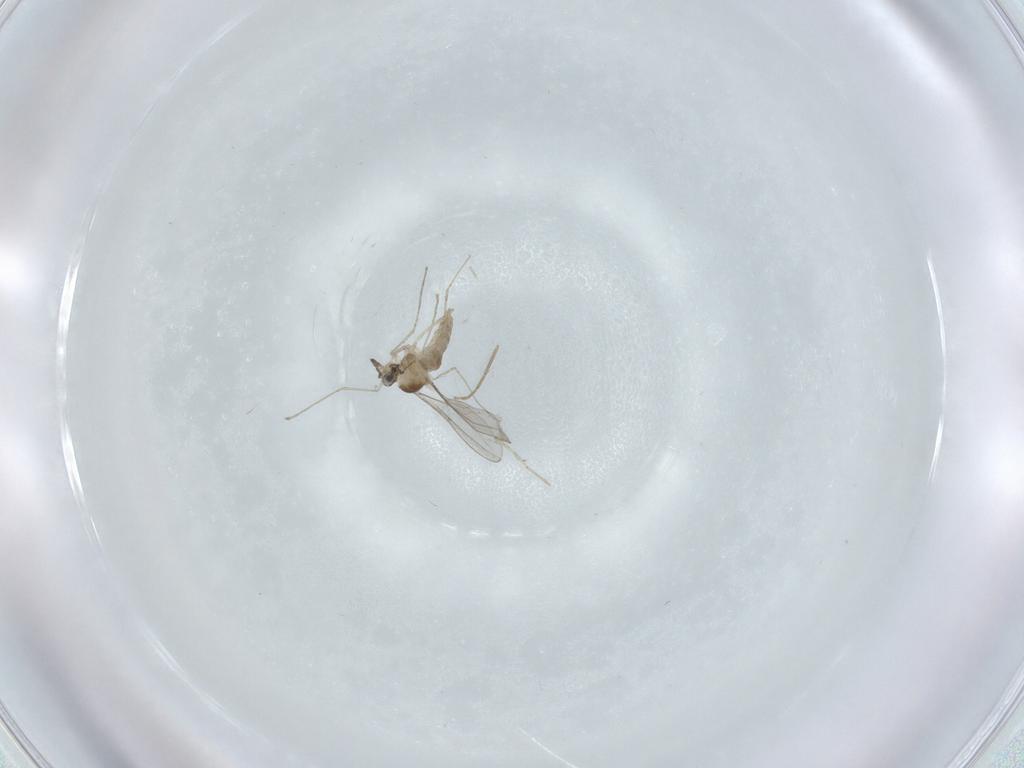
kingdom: Animalia
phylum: Arthropoda
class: Insecta
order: Diptera
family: Cecidomyiidae
